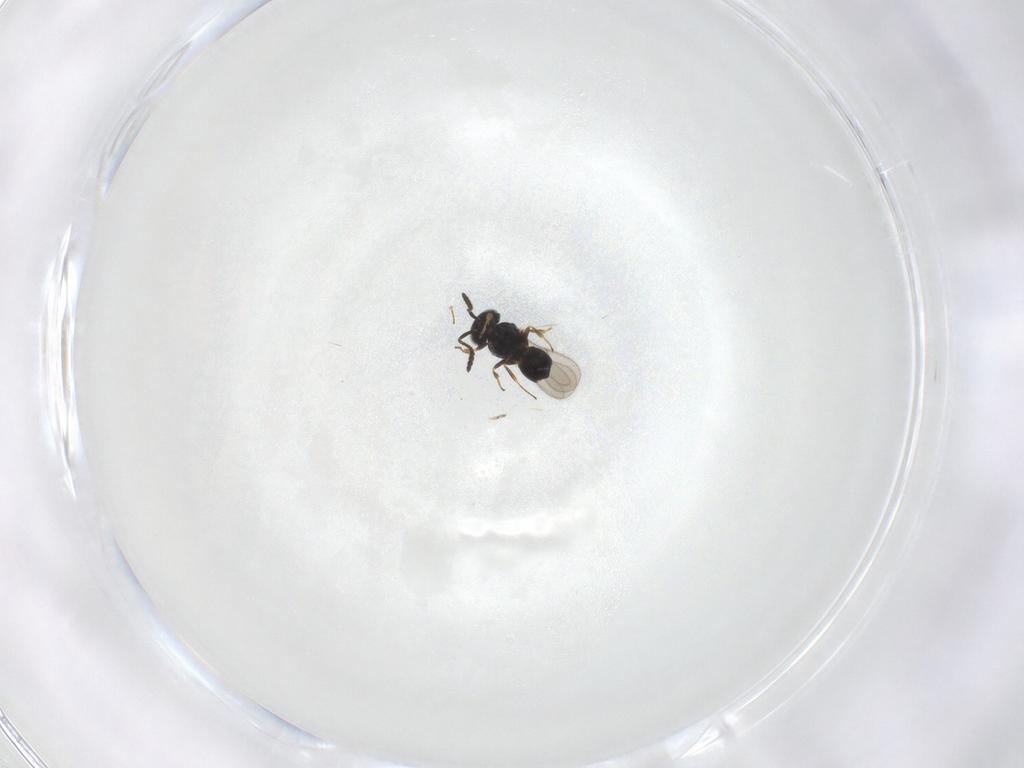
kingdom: Animalia
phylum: Arthropoda
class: Insecta
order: Hymenoptera
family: Scelionidae
